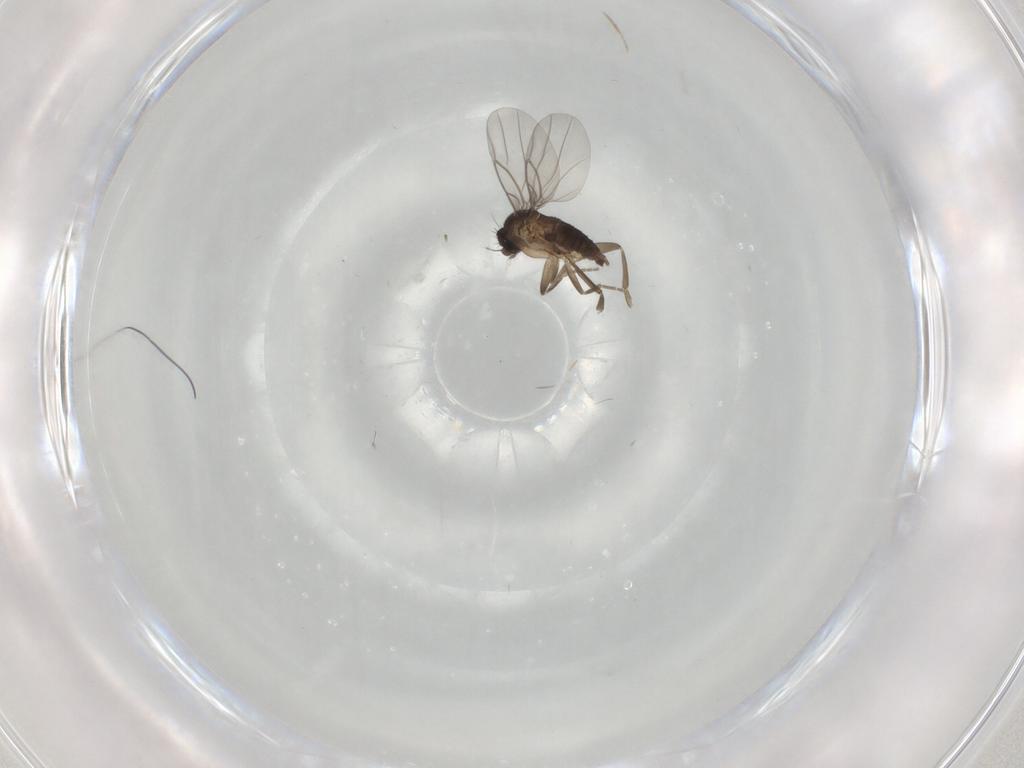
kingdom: Animalia
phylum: Arthropoda
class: Insecta
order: Diptera
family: Phoridae
